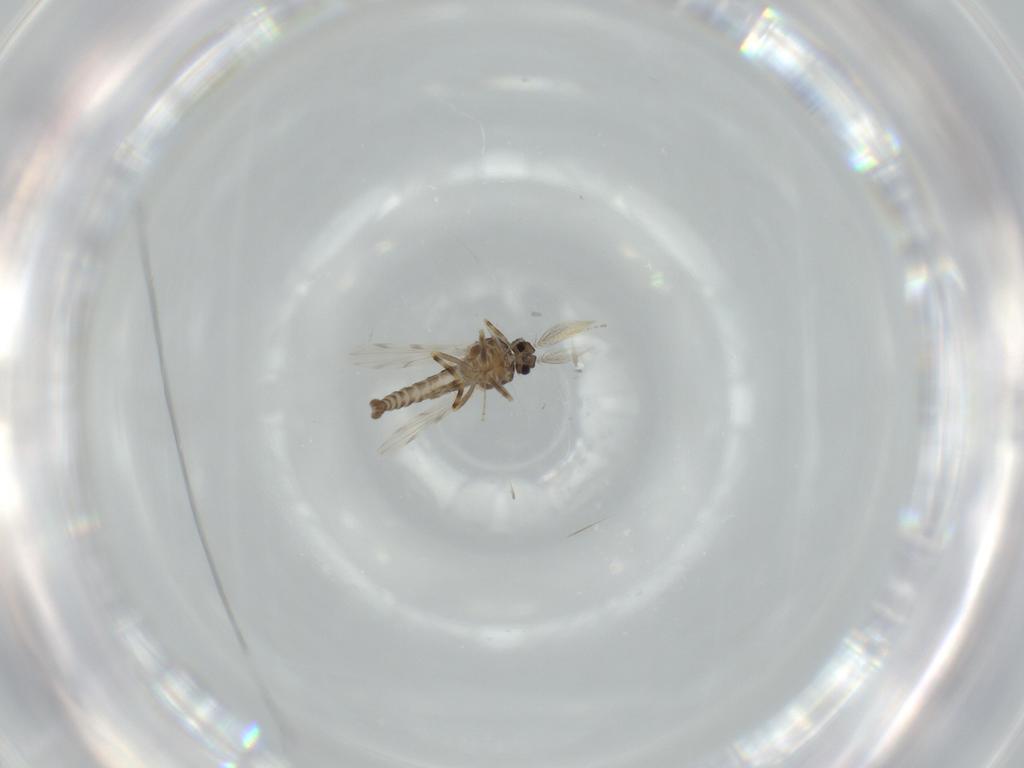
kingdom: Animalia
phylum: Arthropoda
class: Insecta
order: Diptera
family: Ceratopogonidae
